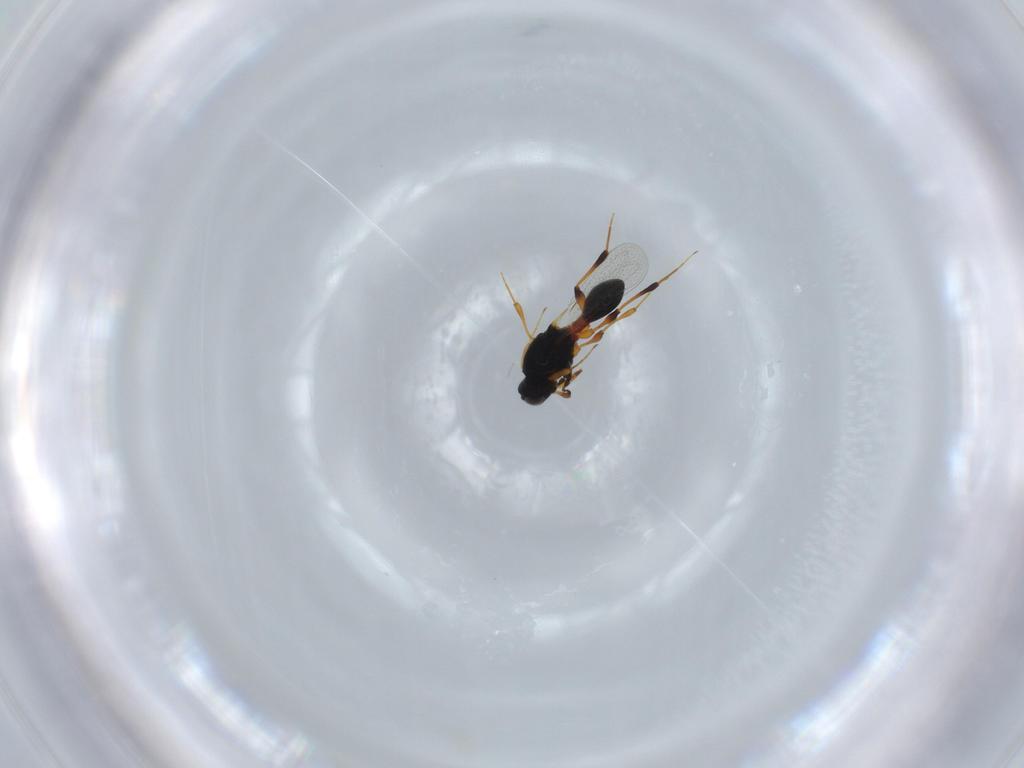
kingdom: Animalia
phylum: Arthropoda
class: Insecta
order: Hymenoptera
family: Platygastridae
